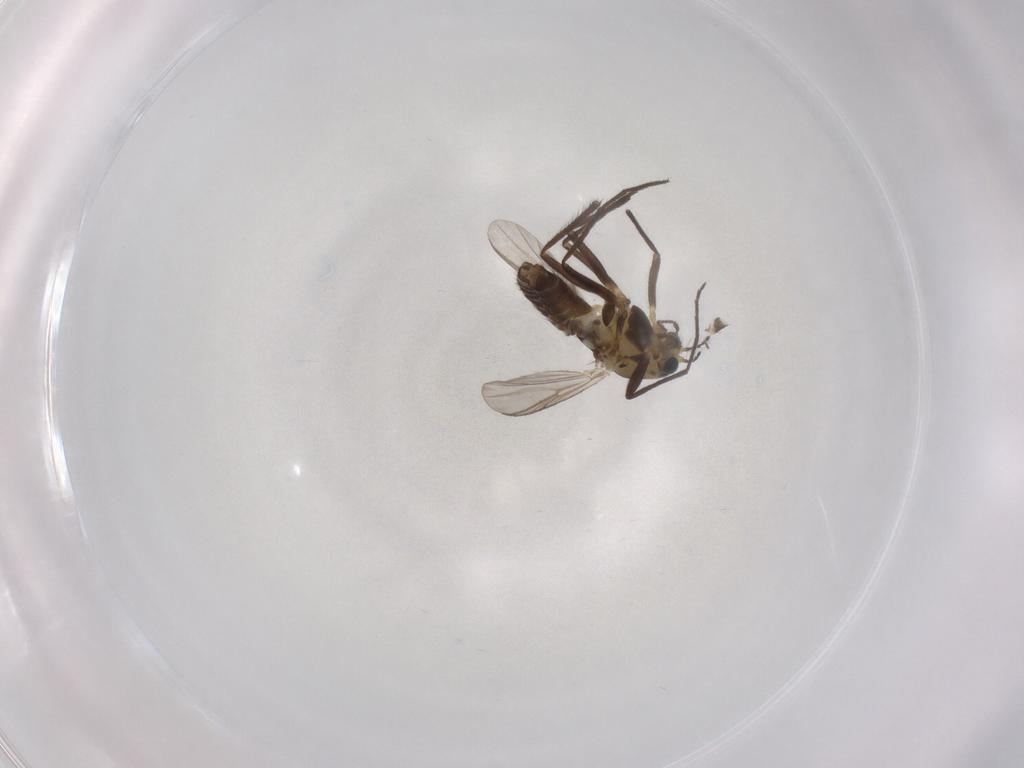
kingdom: Animalia
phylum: Arthropoda
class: Insecta
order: Diptera
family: Chironomidae
